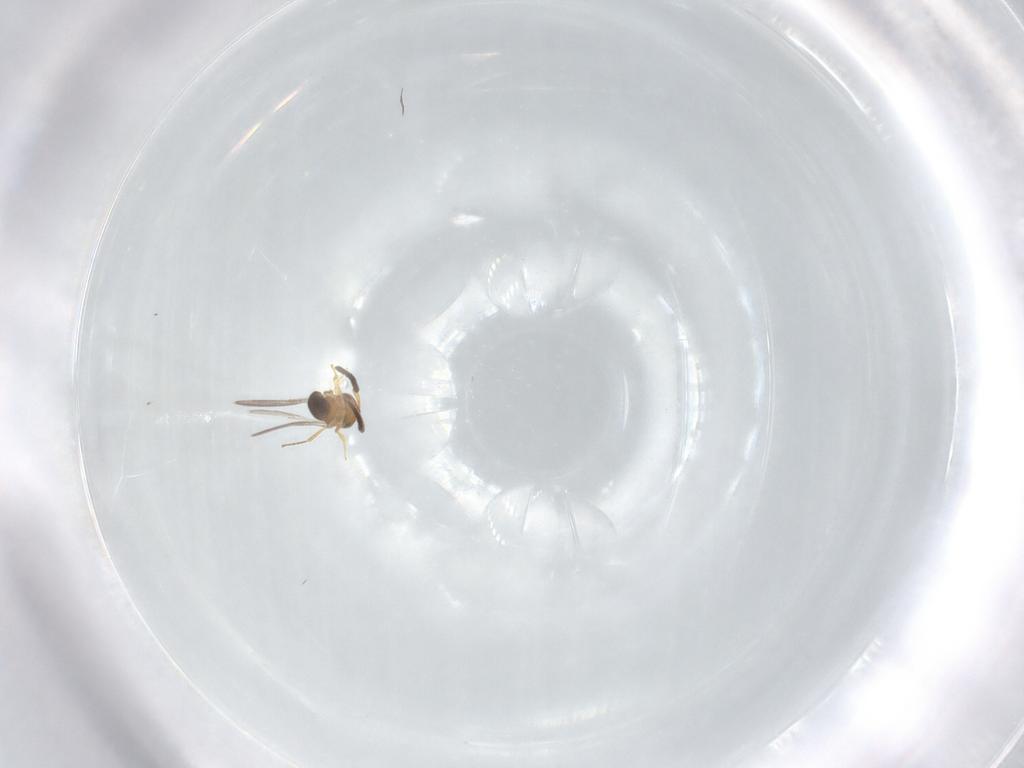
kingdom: Animalia
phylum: Arthropoda
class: Insecta
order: Hymenoptera
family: Scelionidae
